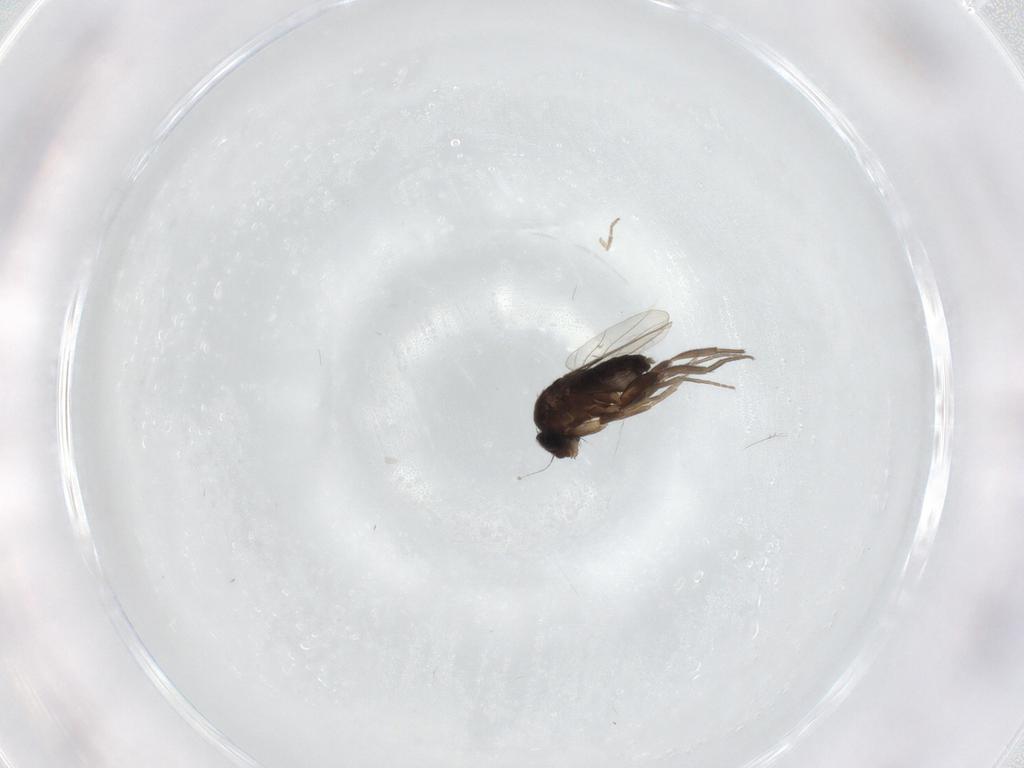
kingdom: Animalia
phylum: Arthropoda
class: Insecta
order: Diptera
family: Phoridae
